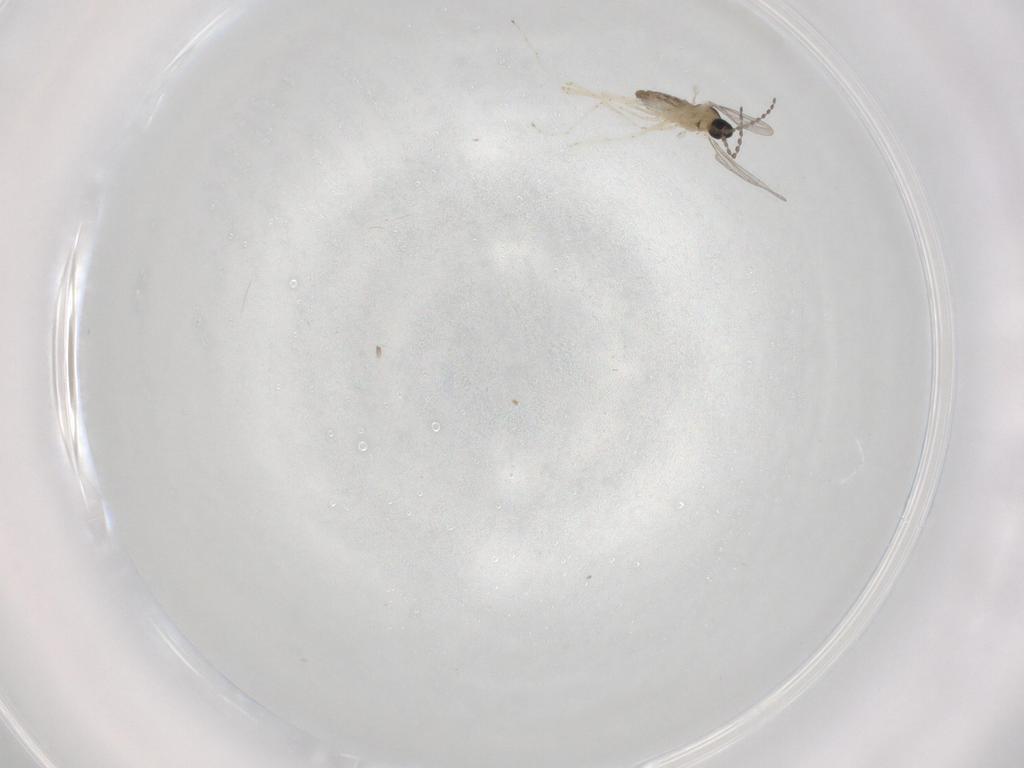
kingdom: Animalia
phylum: Arthropoda
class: Insecta
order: Diptera
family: Cecidomyiidae
